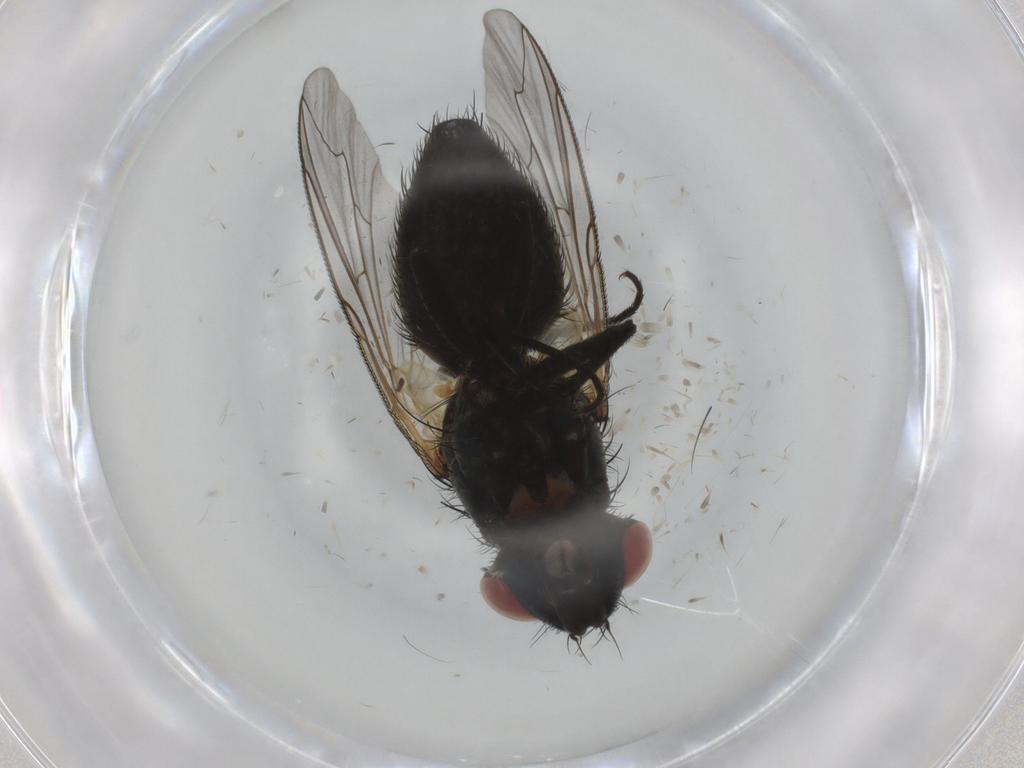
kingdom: Animalia
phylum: Arthropoda
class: Insecta
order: Diptera
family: Sarcophagidae
